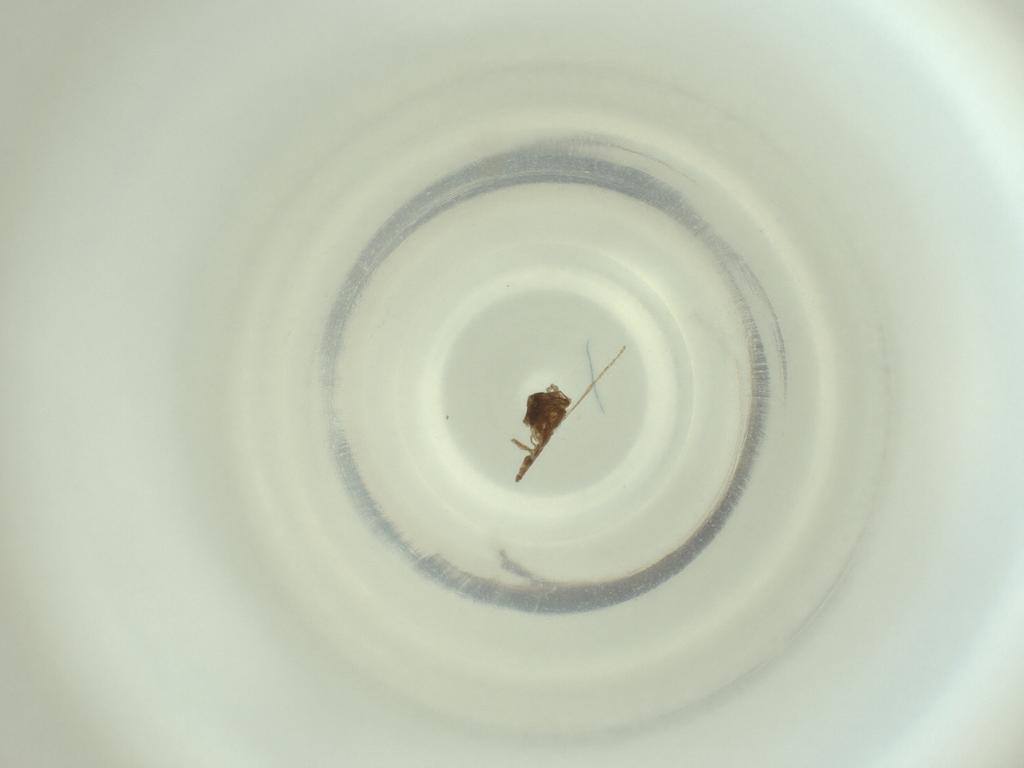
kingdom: Animalia
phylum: Arthropoda
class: Insecta
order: Diptera
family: Cecidomyiidae
